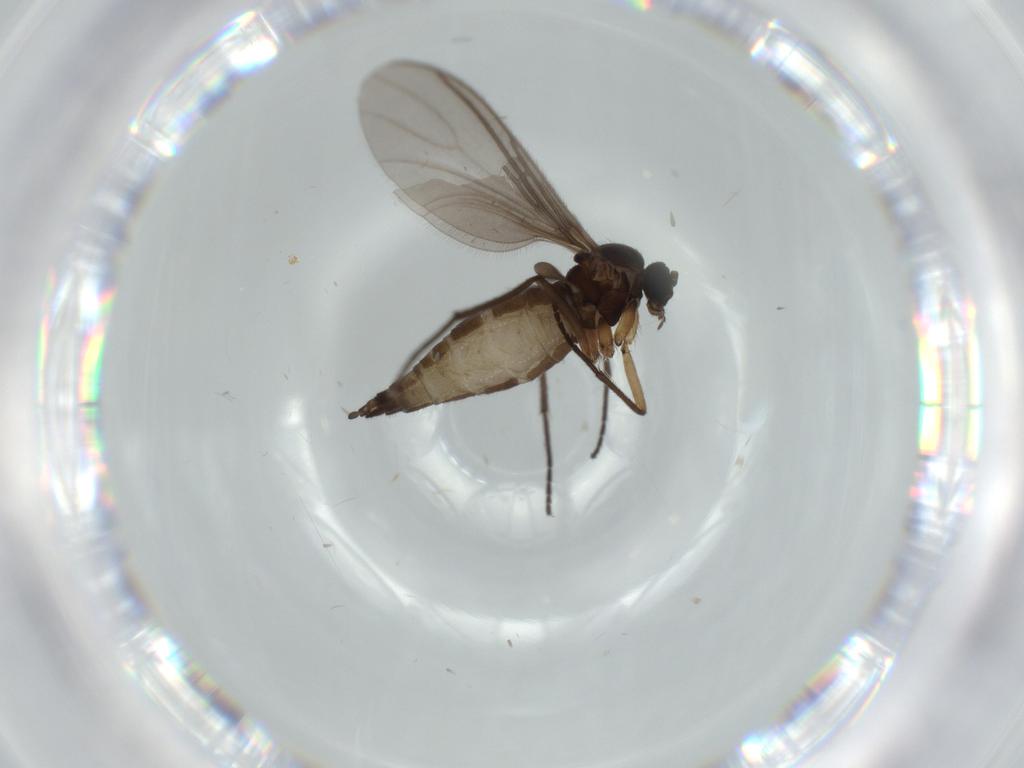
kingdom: Animalia
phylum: Arthropoda
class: Insecta
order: Diptera
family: Sciaridae
